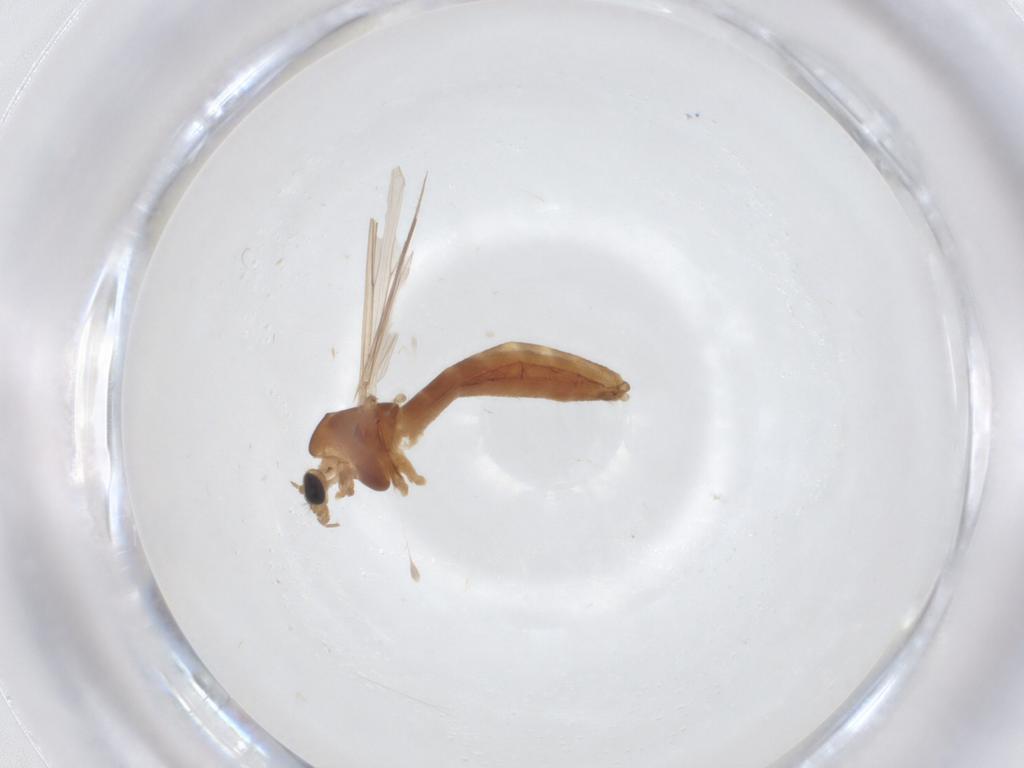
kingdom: Animalia
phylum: Arthropoda
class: Insecta
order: Diptera
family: Chironomidae
